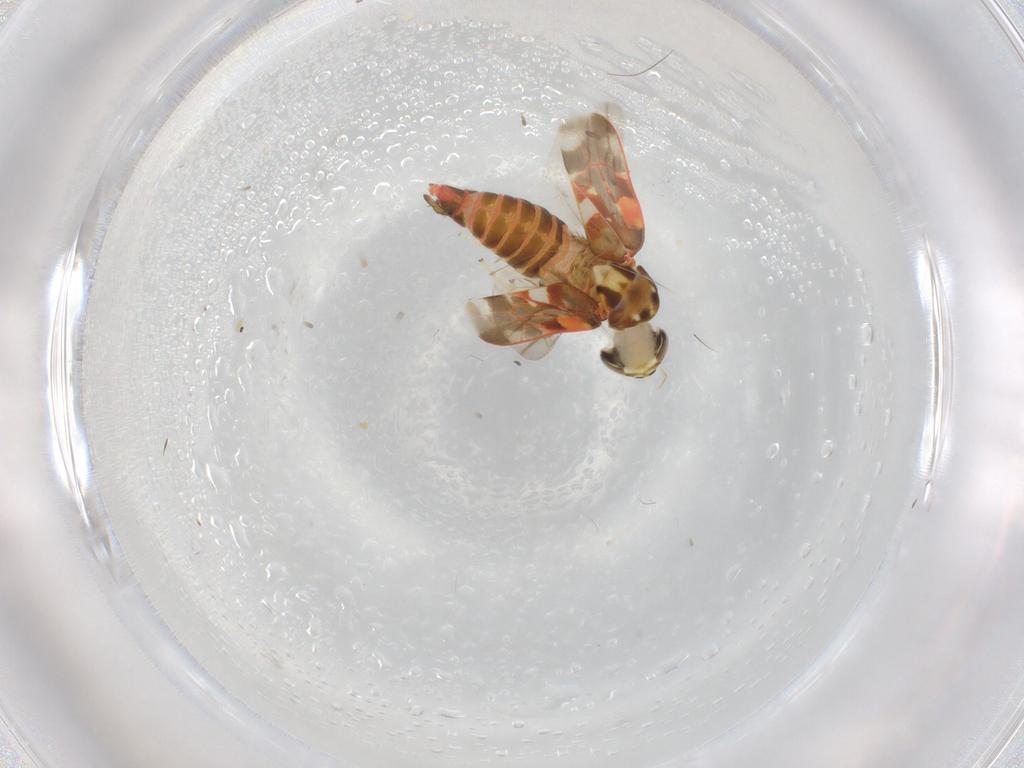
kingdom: Animalia
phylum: Arthropoda
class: Insecta
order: Hemiptera
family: Cicadellidae
